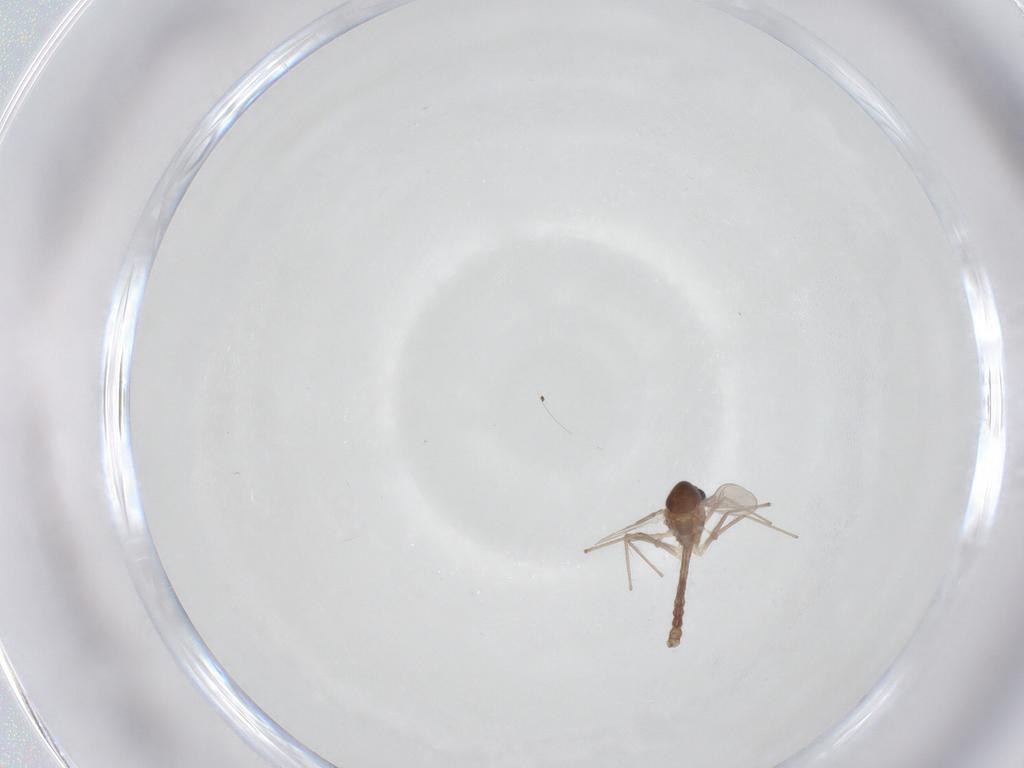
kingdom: Animalia
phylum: Arthropoda
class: Insecta
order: Diptera
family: Chironomidae
